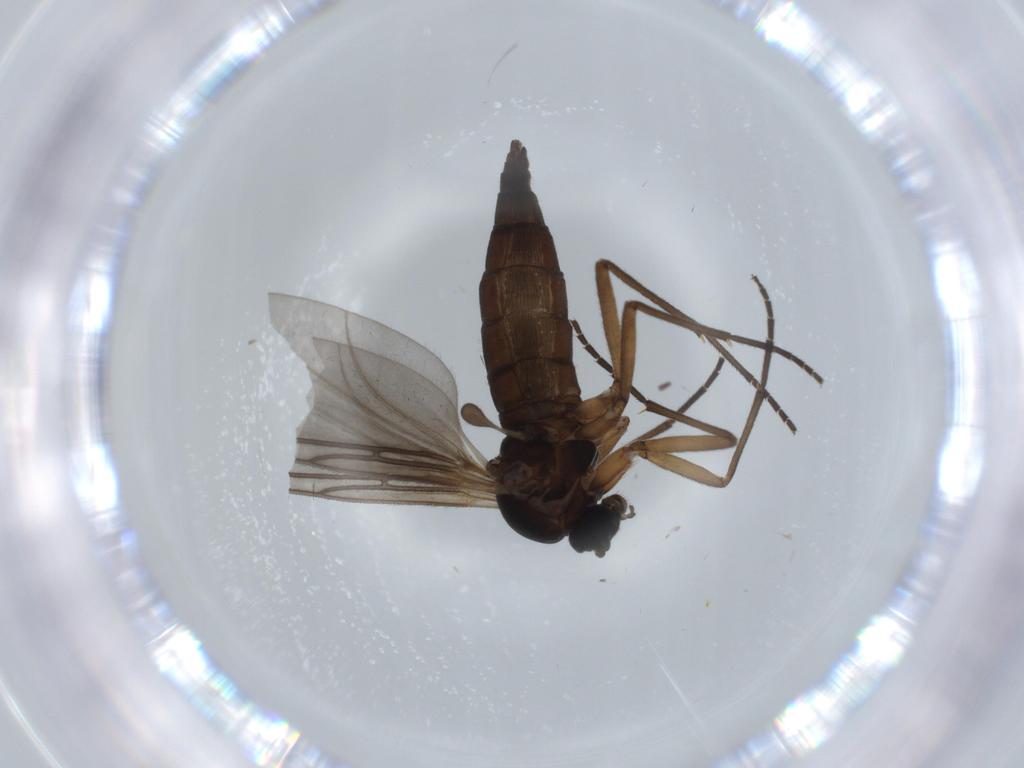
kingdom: Animalia
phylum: Arthropoda
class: Insecta
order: Diptera
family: Sciaridae
